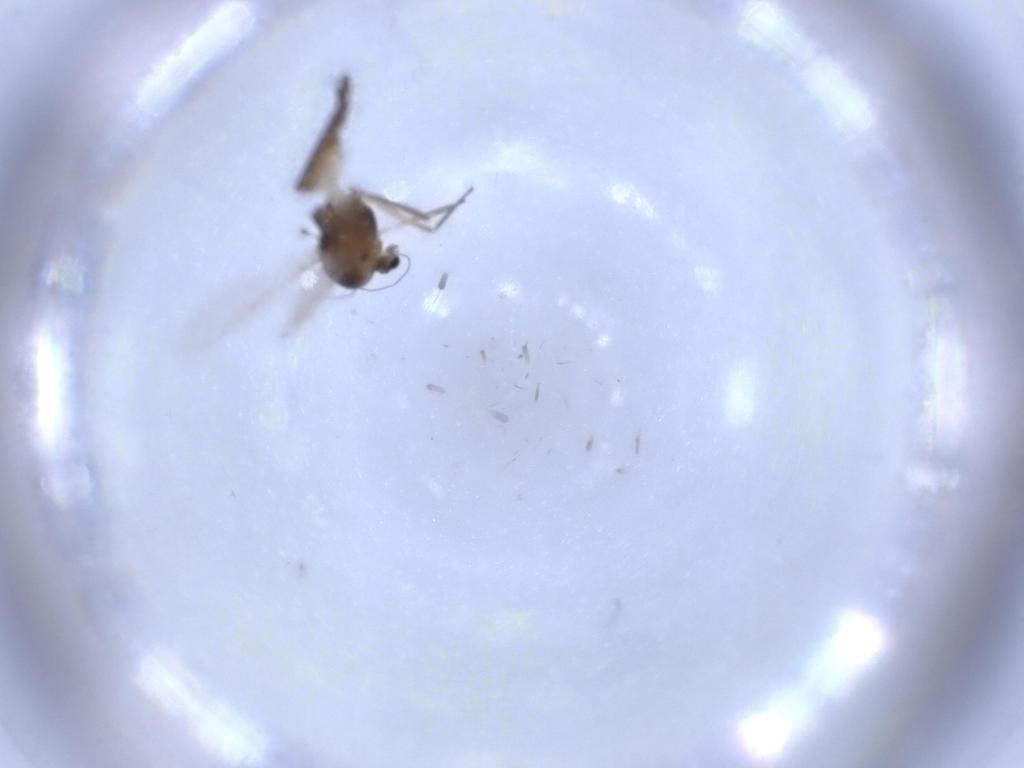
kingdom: Animalia
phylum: Arthropoda
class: Insecta
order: Diptera
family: Chironomidae
